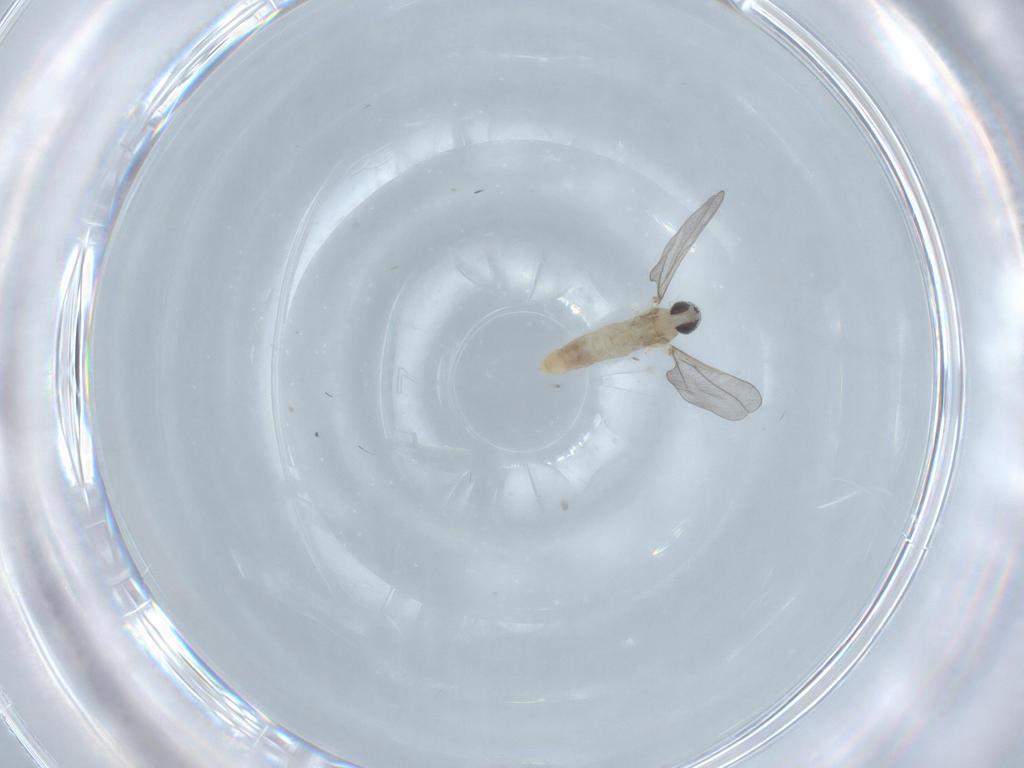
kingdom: Animalia
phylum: Arthropoda
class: Insecta
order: Diptera
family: Cecidomyiidae
